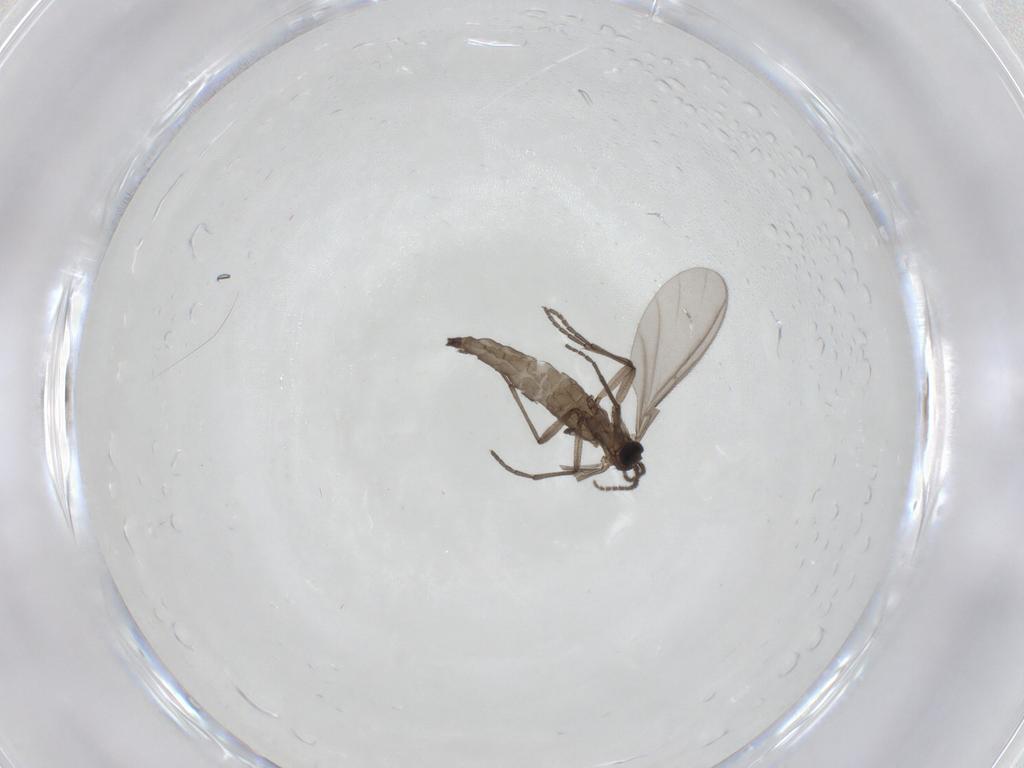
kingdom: Animalia
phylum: Arthropoda
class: Insecta
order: Diptera
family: Sciaridae
